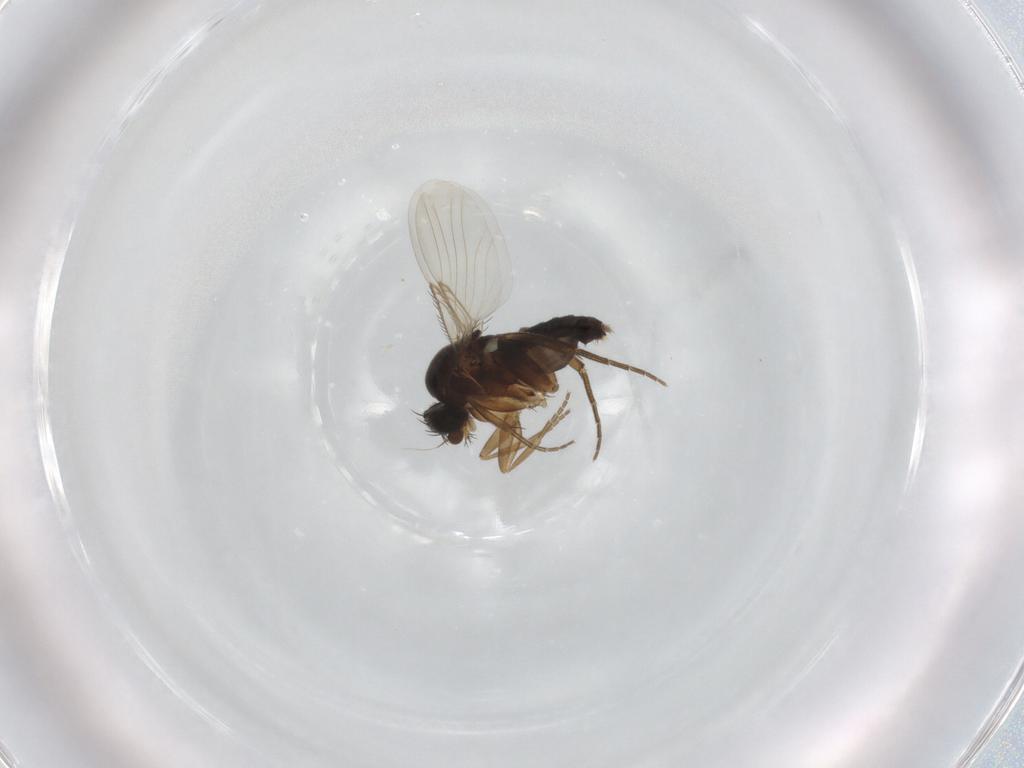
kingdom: Animalia
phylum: Arthropoda
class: Insecta
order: Diptera
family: Phoridae
